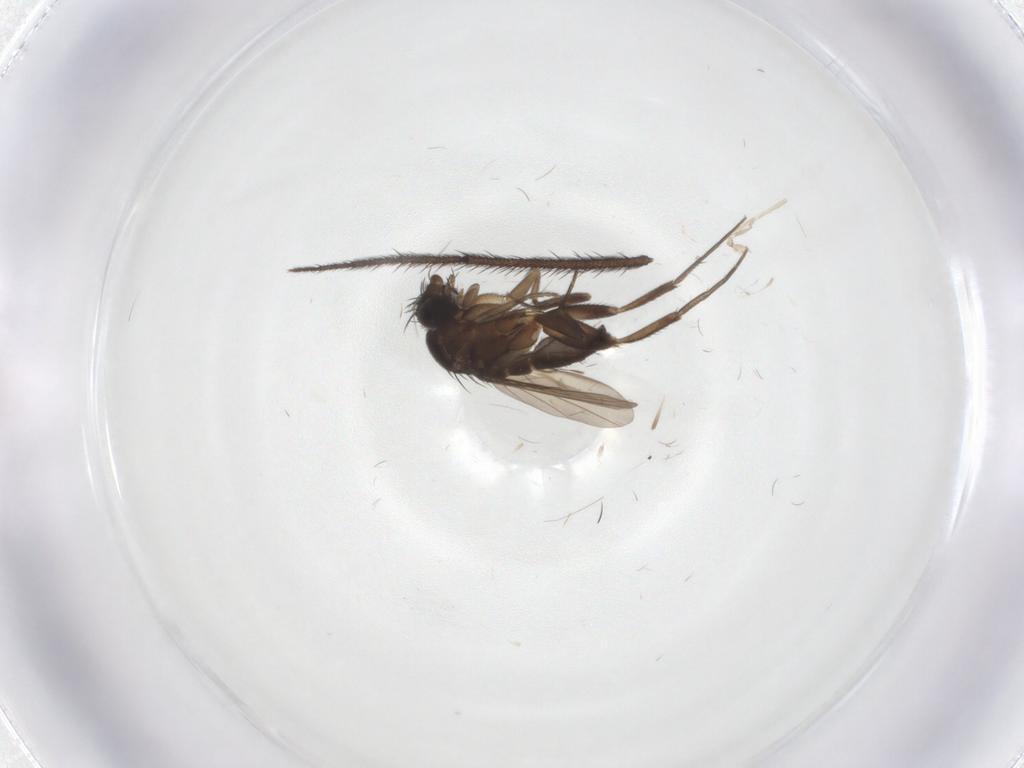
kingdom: Animalia
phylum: Arthropoda
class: Insecta
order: Diptera
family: Phoridae
